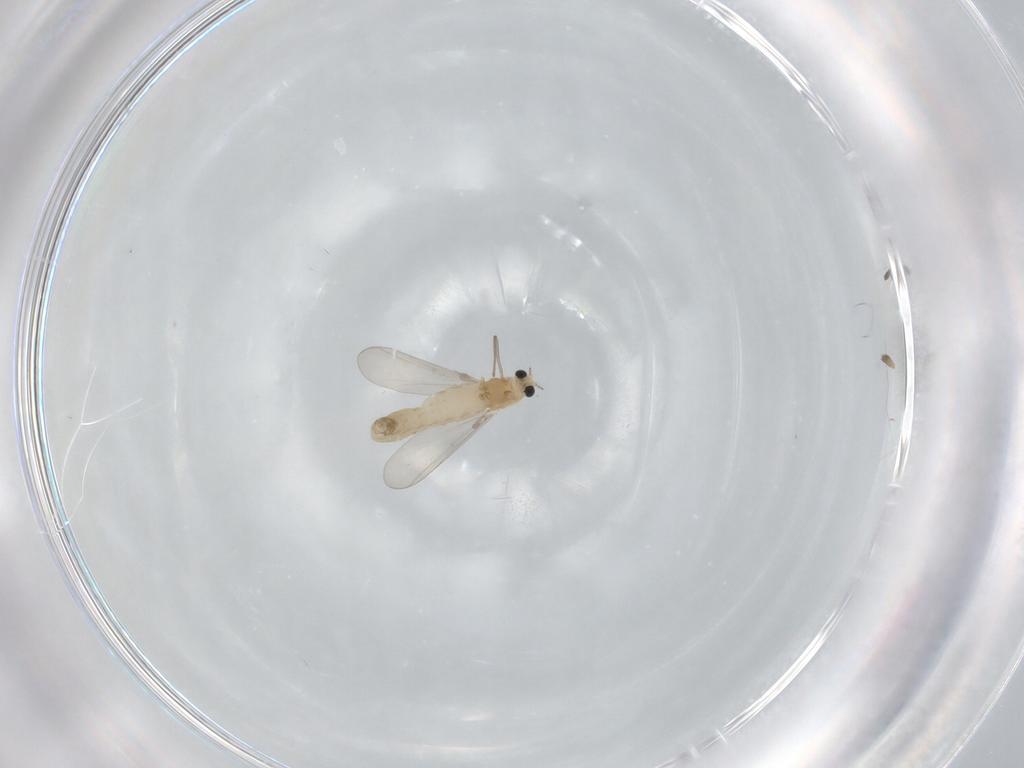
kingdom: Animalia
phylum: Arthropoda
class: Insecta
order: Diptera
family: Chironomidae
